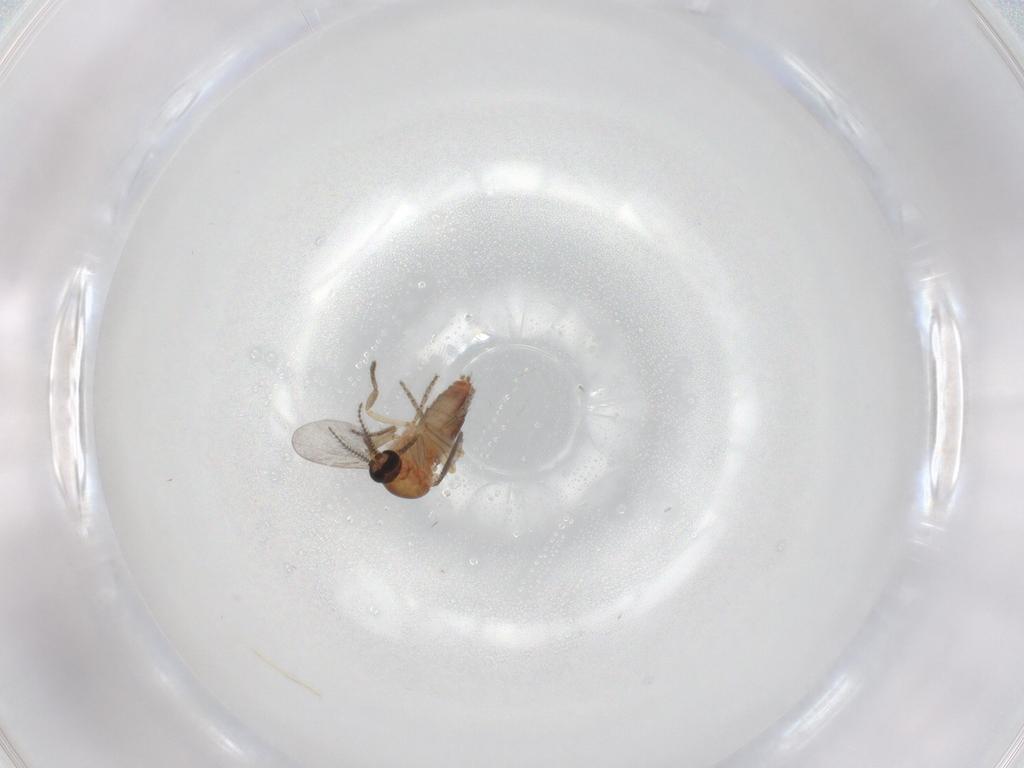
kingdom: Animalia
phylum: Arthropoda
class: Insecta
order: Diptera
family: Ceratopogonidae
